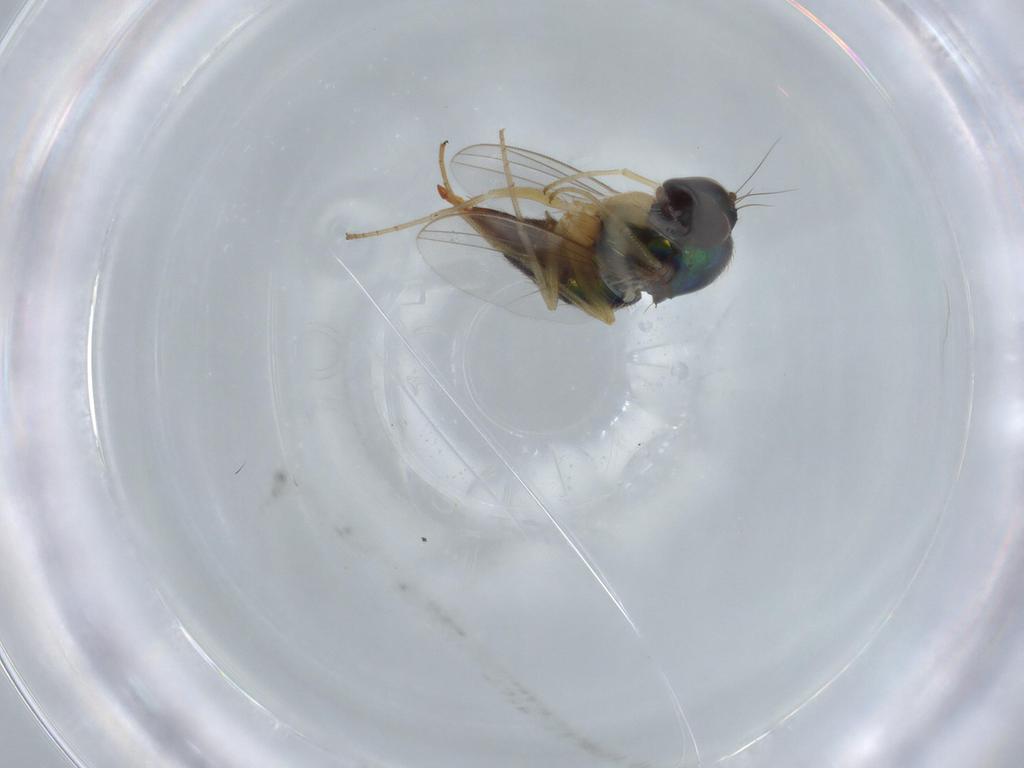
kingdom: Animalia
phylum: Arthropoda
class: Insecta
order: Diptera
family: Dolichopodidae
